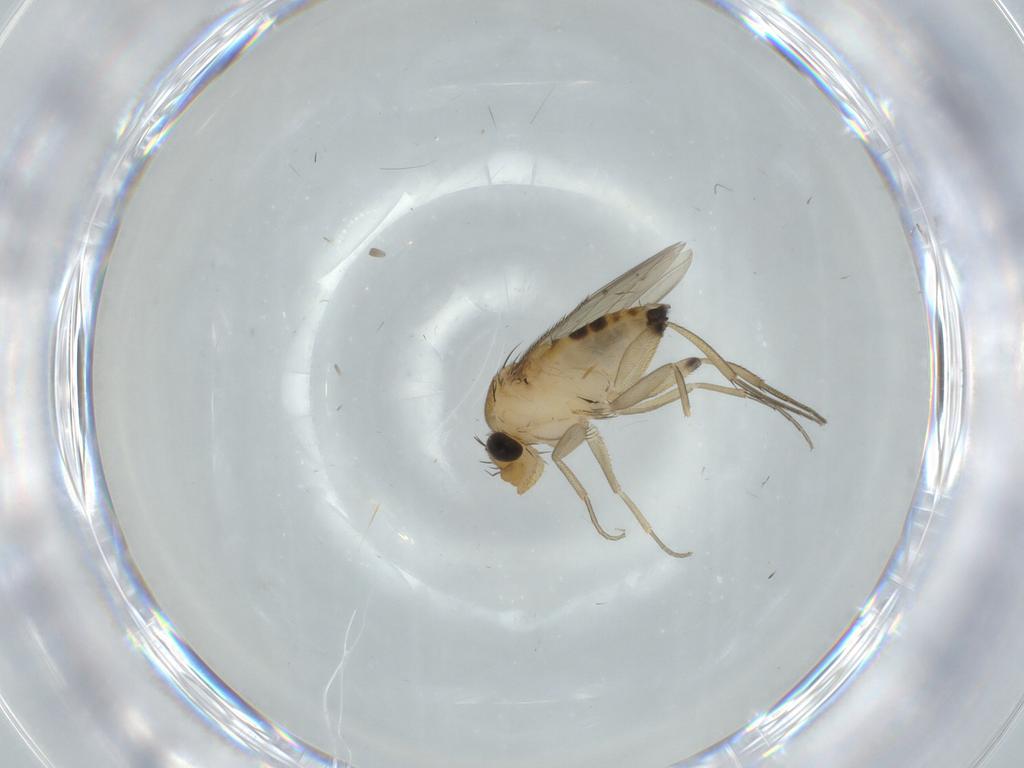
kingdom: Animalia
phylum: Arthropoda
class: Insecta
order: Diptera
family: Phoridae
